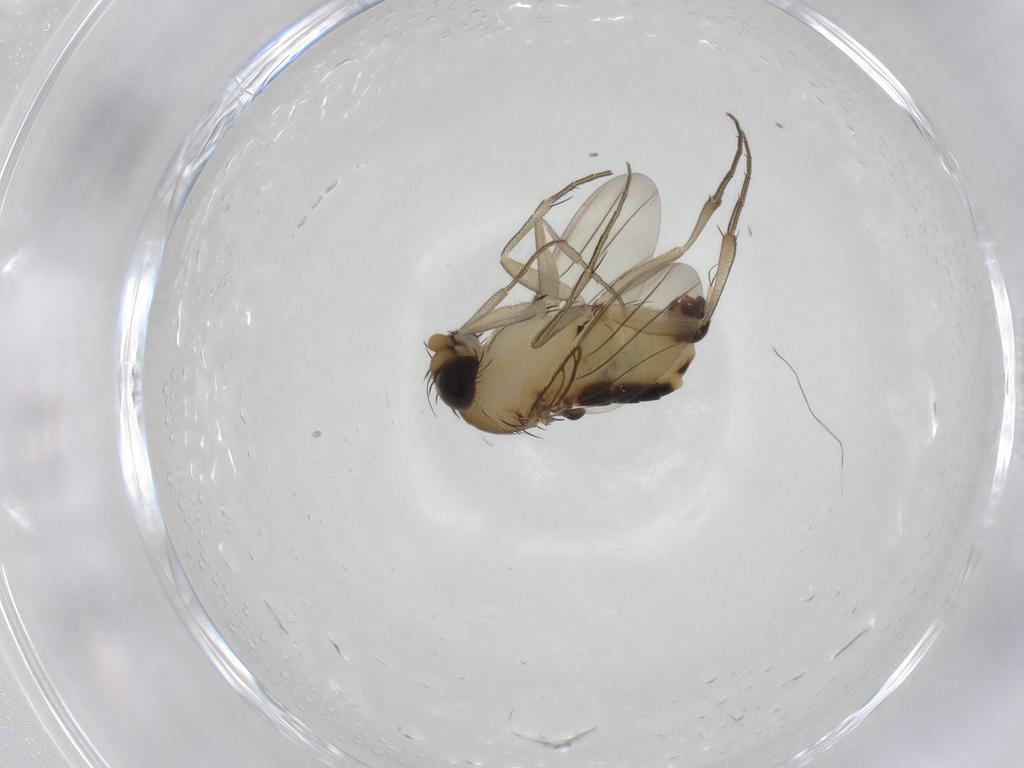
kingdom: Animalia
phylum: Arthropoda
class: Insecta
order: Diptera
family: Phoridae
